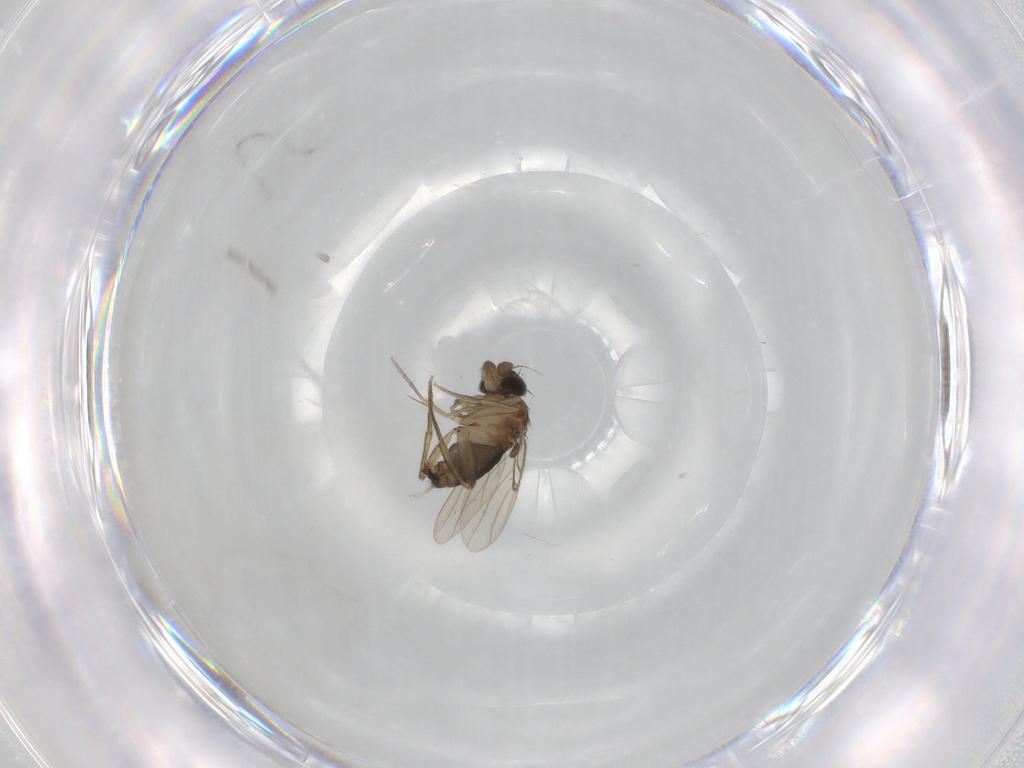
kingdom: Animalia
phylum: Arthropoda
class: Insecta
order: Diptera
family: Phoridae
